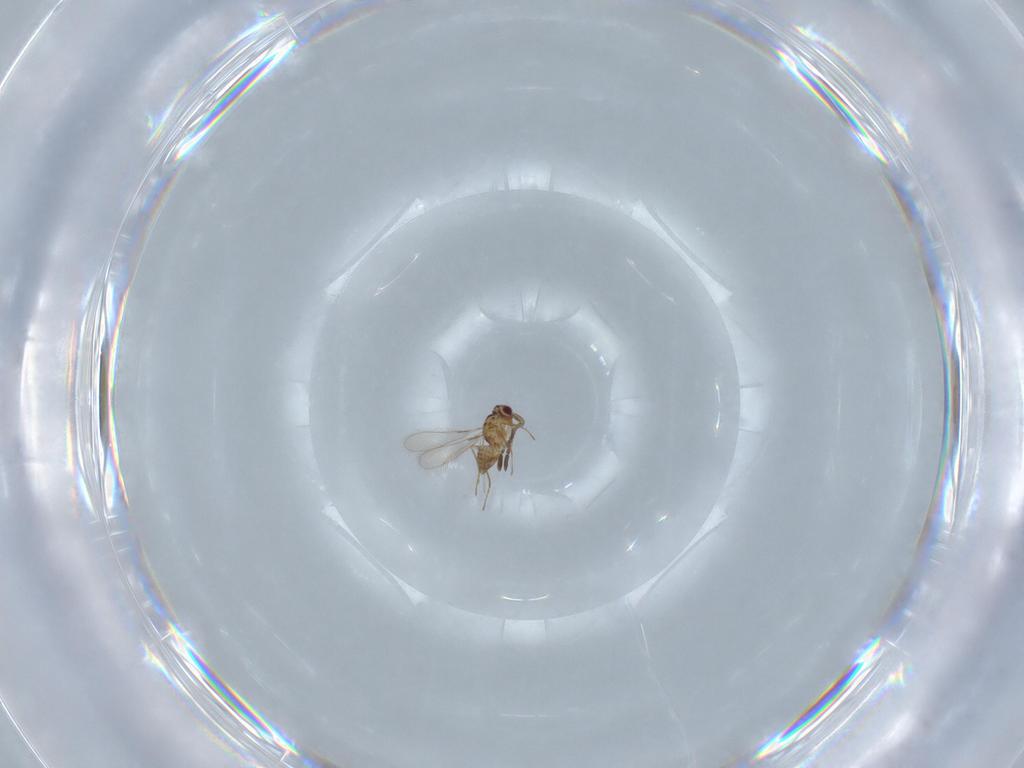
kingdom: Animalia
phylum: Arthropoda
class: Insecta
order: Hymenoptera
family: Mymaridae
